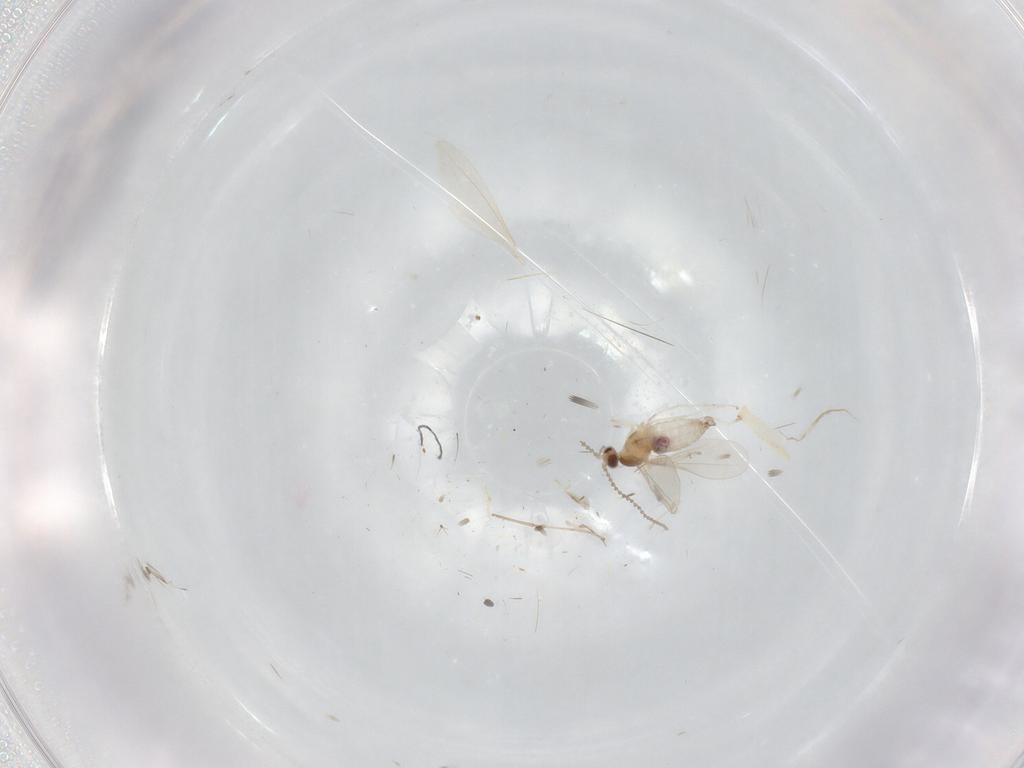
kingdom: Animalia
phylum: Arthropoda
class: Insecta
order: Diptera
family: Cecidomyiidae
